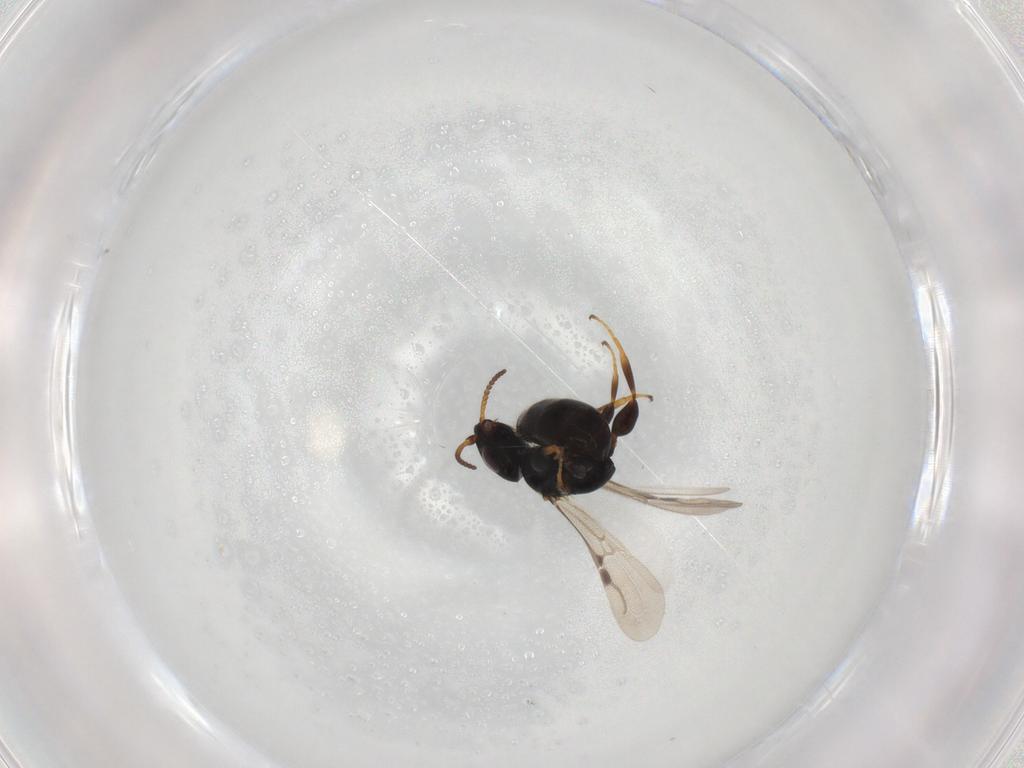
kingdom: Animalia
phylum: Arthropoda
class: Insecta
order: Hymenoptera
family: Bethylidae
